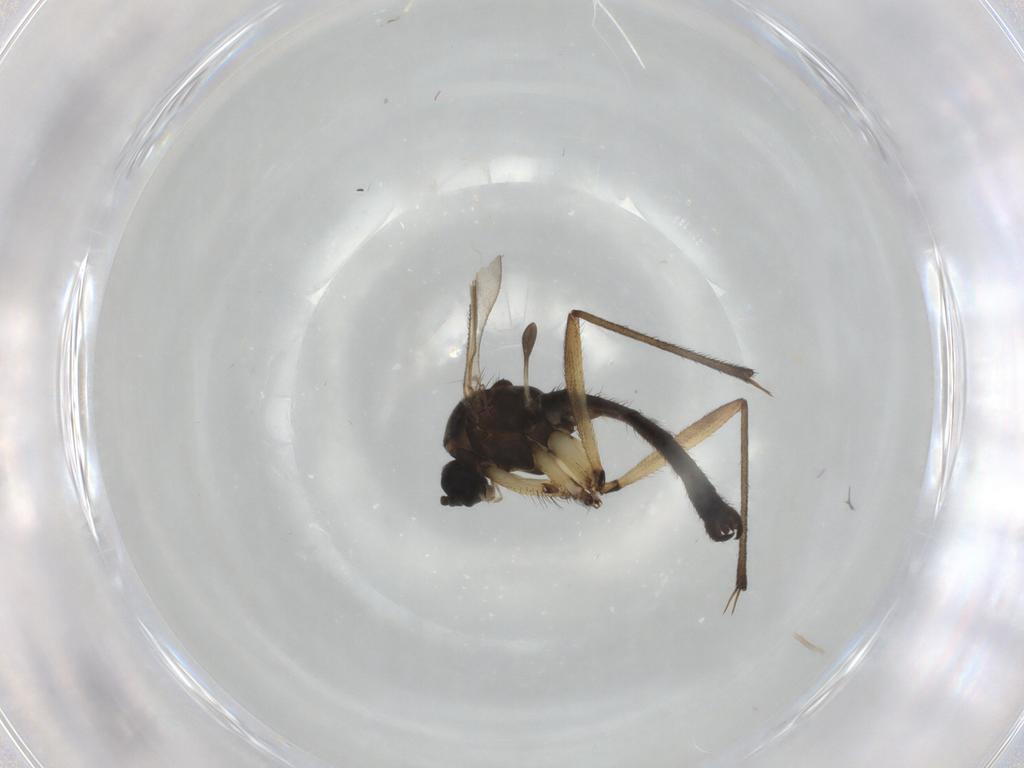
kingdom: Animalia
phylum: Arthropoda
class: Insecta
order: Diptera
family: Sciaridae
